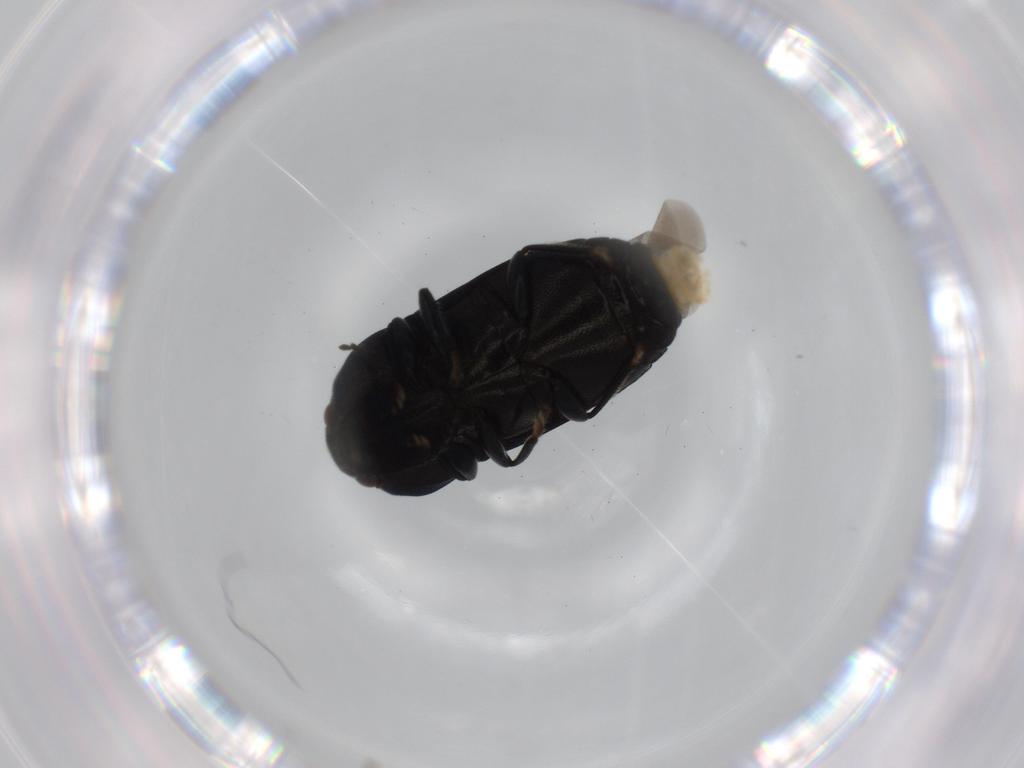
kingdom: Animalia
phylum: Arthropoda
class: Insecta
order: Coleoptera
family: Buprestidae
